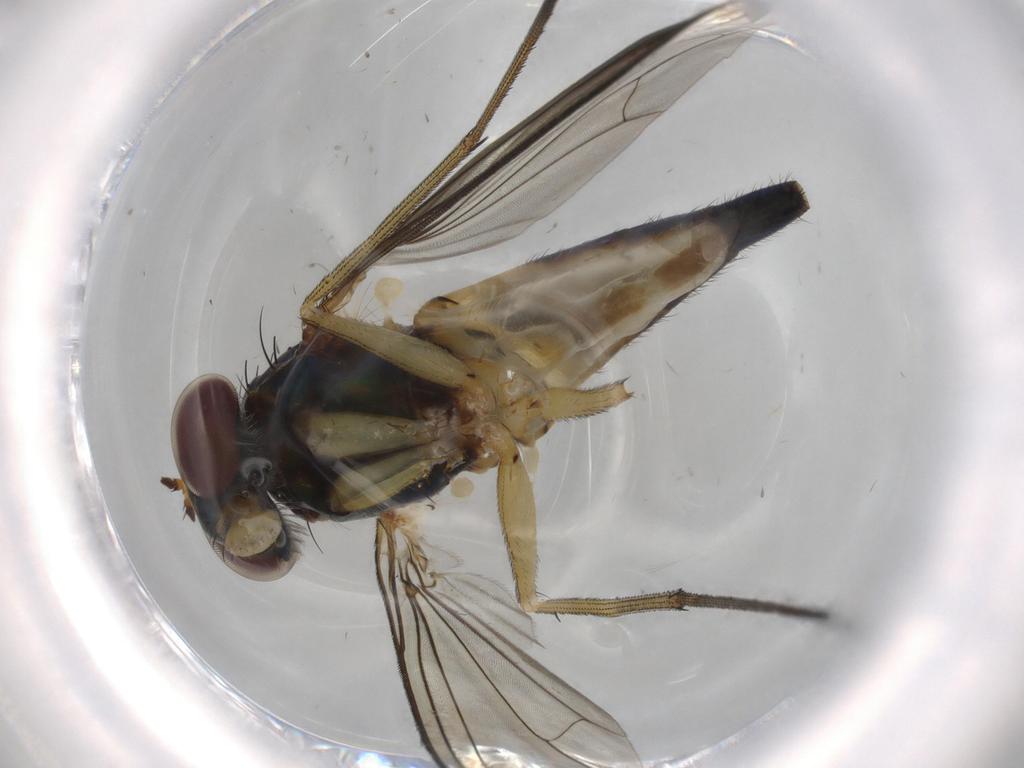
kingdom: Animalia
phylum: Arthropoda
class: Insecta
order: Diptera
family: Dolichopodidae
